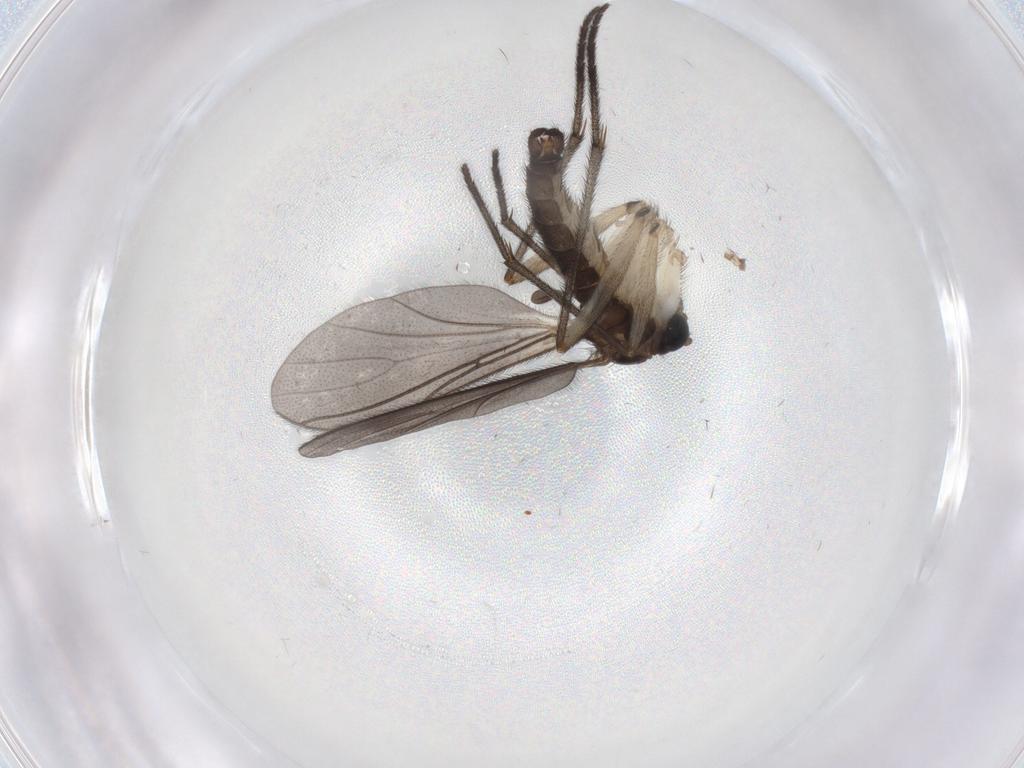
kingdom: Animalia
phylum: Arthropoda
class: Insecta
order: Diptera
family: Sciaridae
